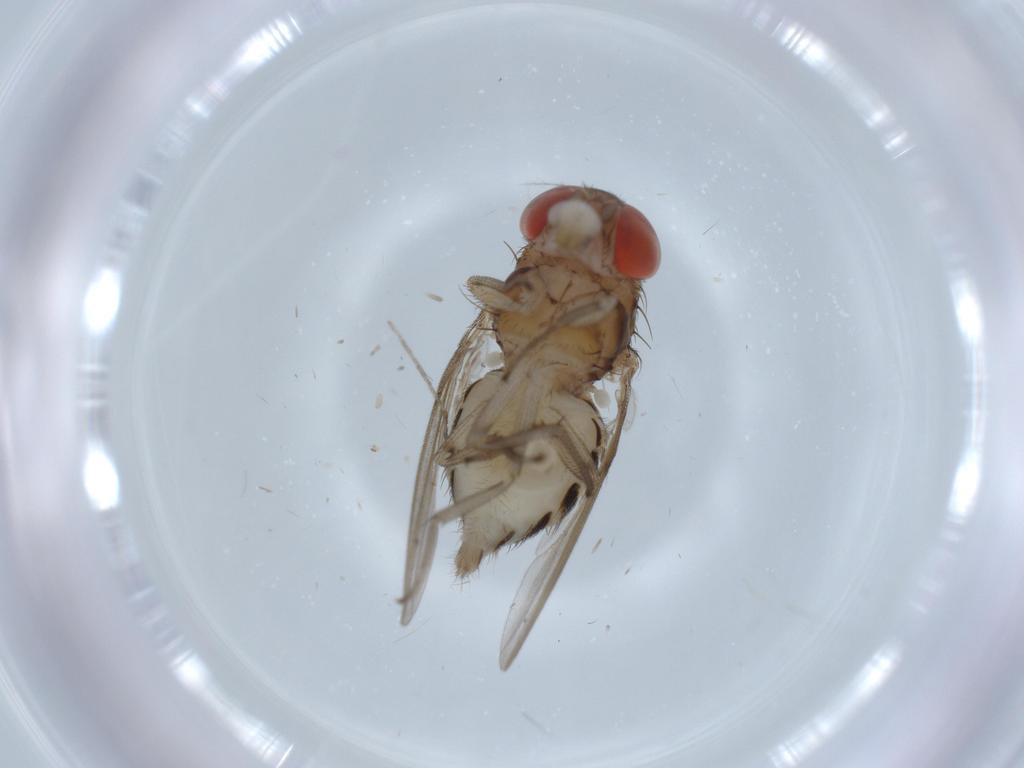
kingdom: Animalia
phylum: Arthropoda
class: Insecta
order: Diptera
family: Drosophilidae
